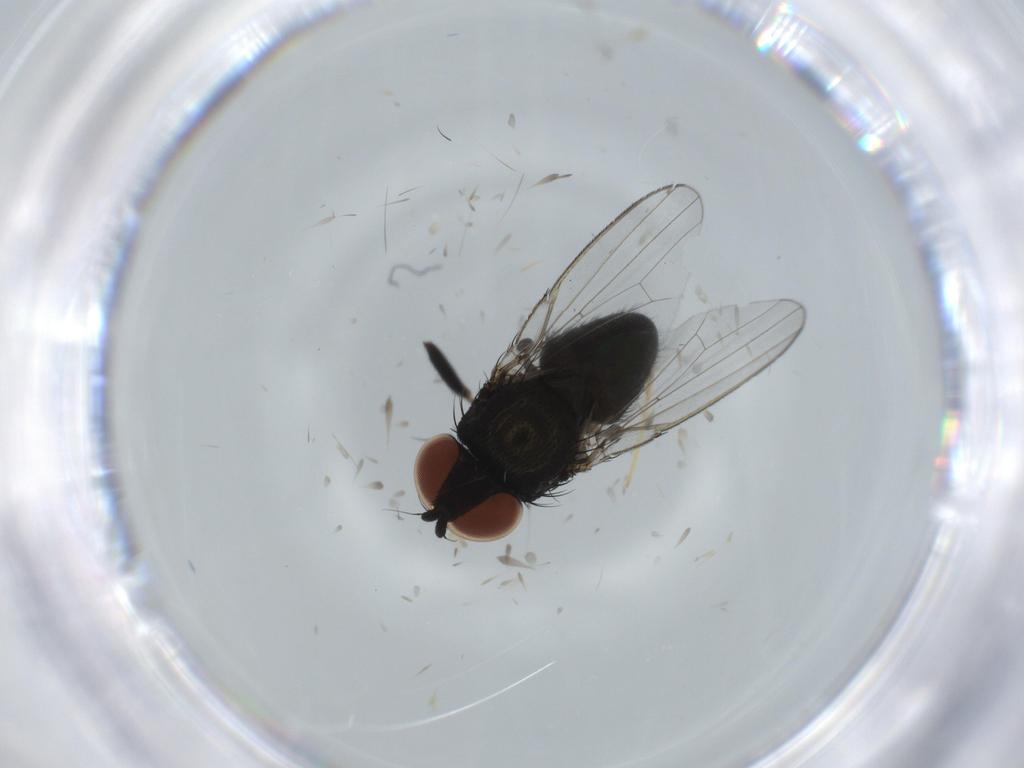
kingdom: Animalia
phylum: Arthropoda
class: Insecta
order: Diptera
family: Milichiidae
